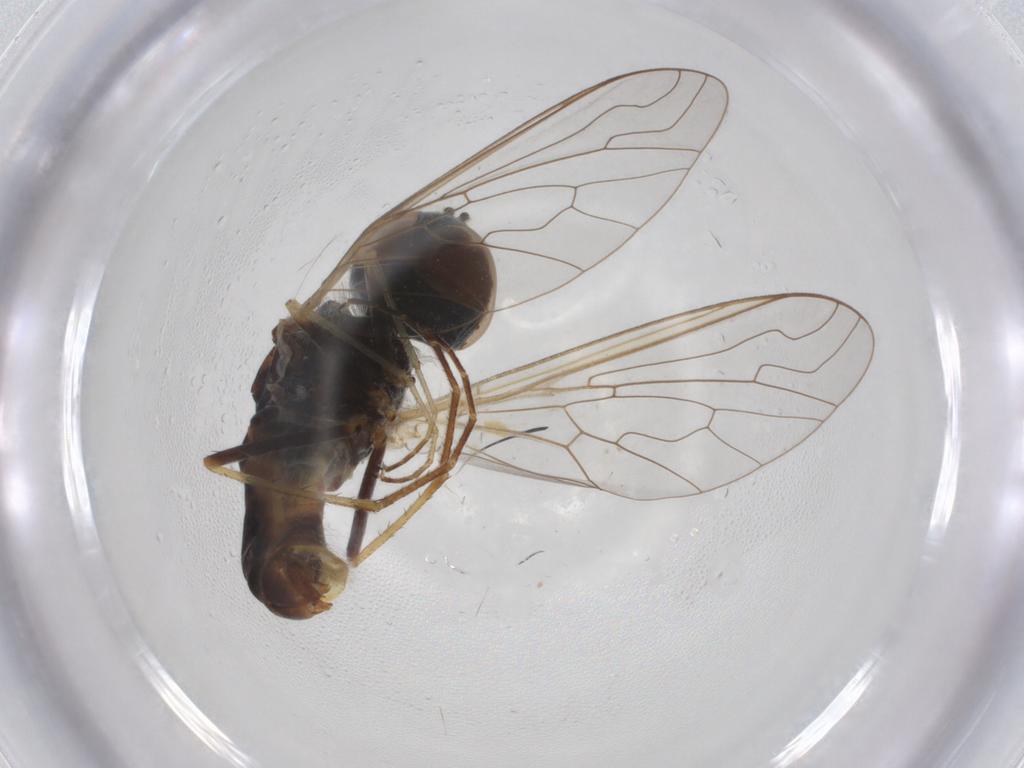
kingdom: Animalia
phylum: Arthropoda
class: Insecta
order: Diptera
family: Bombyliidae
